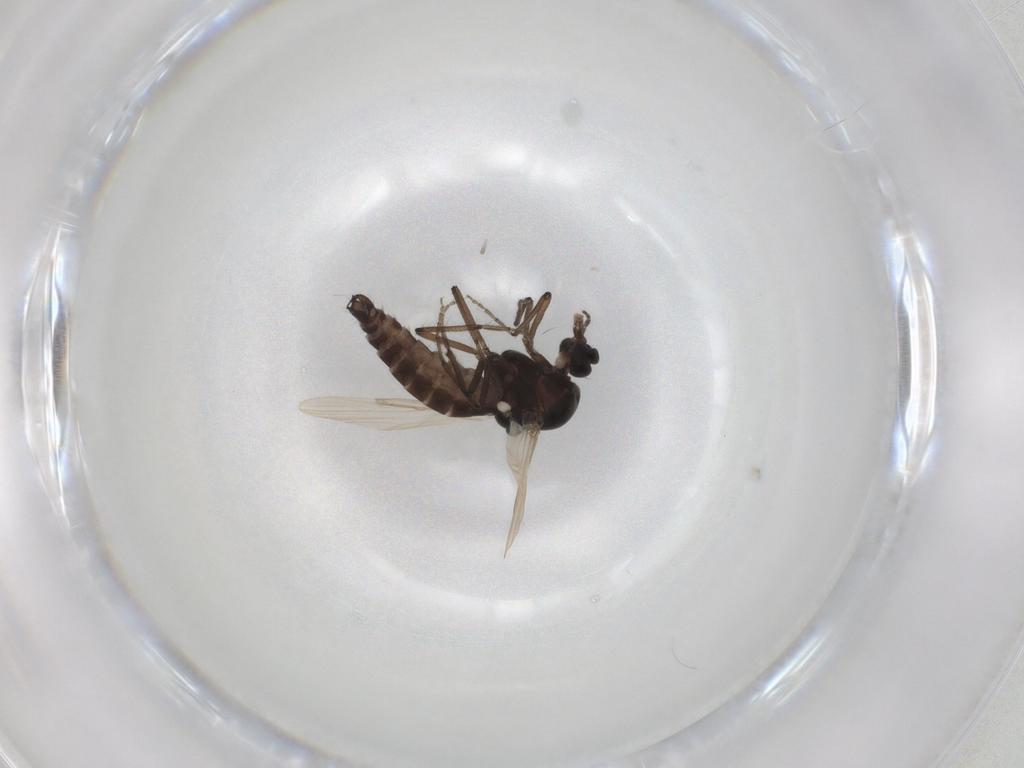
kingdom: Animalia
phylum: Arthropoda
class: Insecta
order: Diptera
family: Ceratopogonidae
